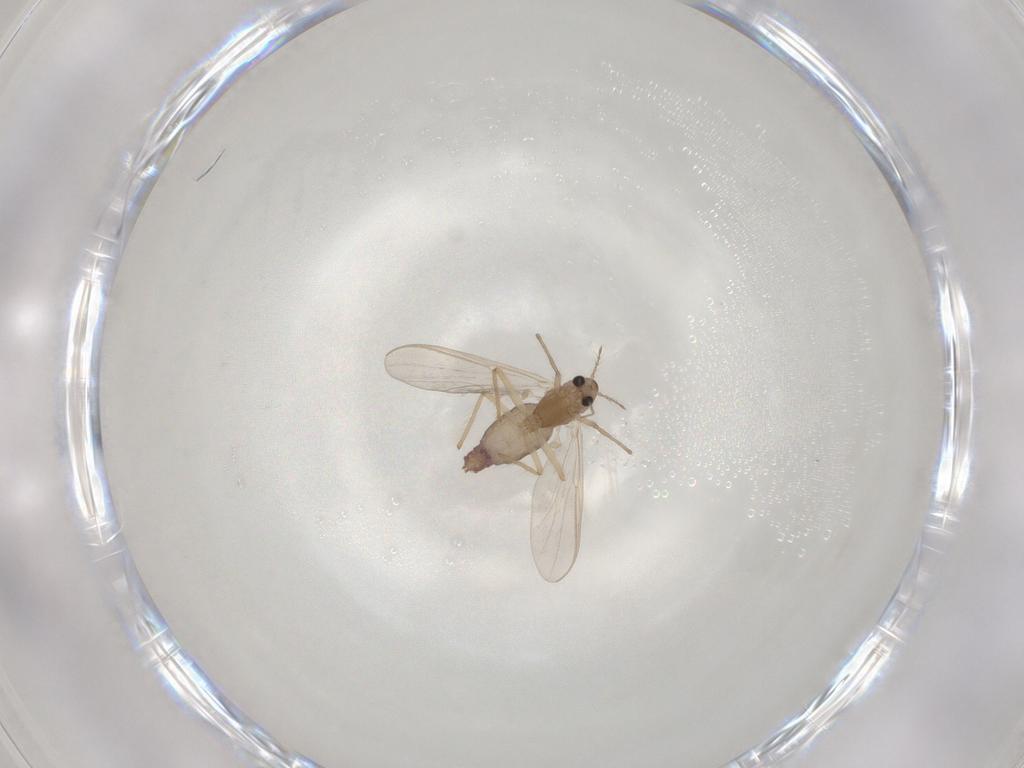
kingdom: Animalia
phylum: Arthropoda
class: Insecta
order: Diptera
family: Chironomidae
